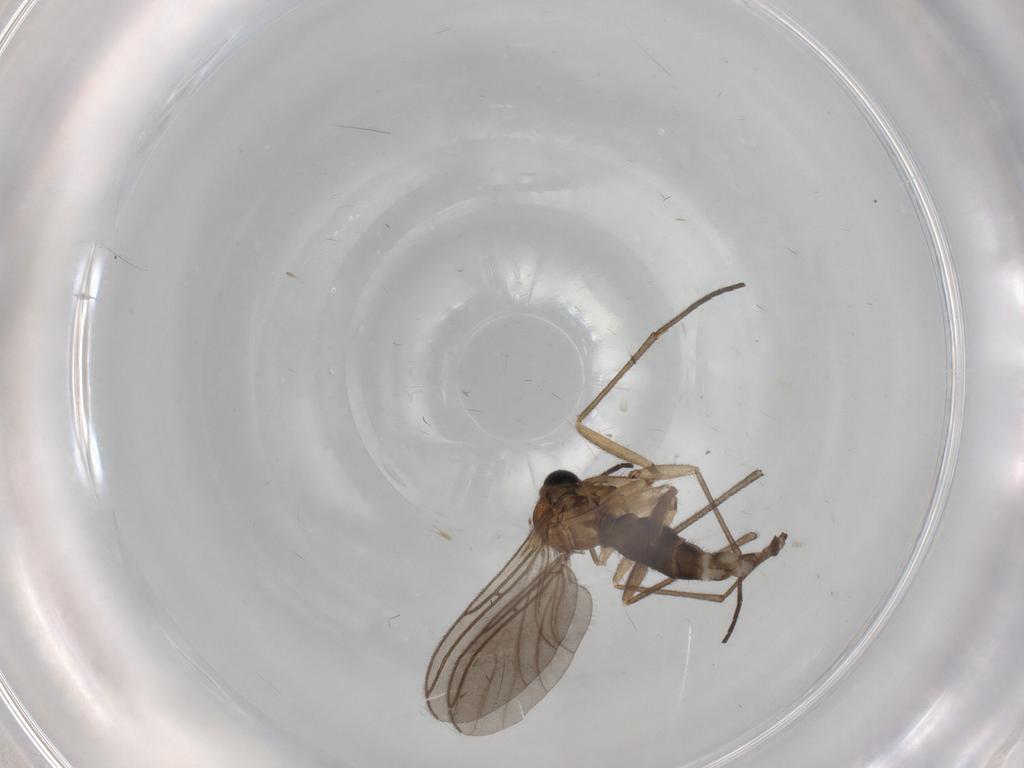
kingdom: Animalia
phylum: Arthropoda
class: Insecta
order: Diptera
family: Sciaridae
